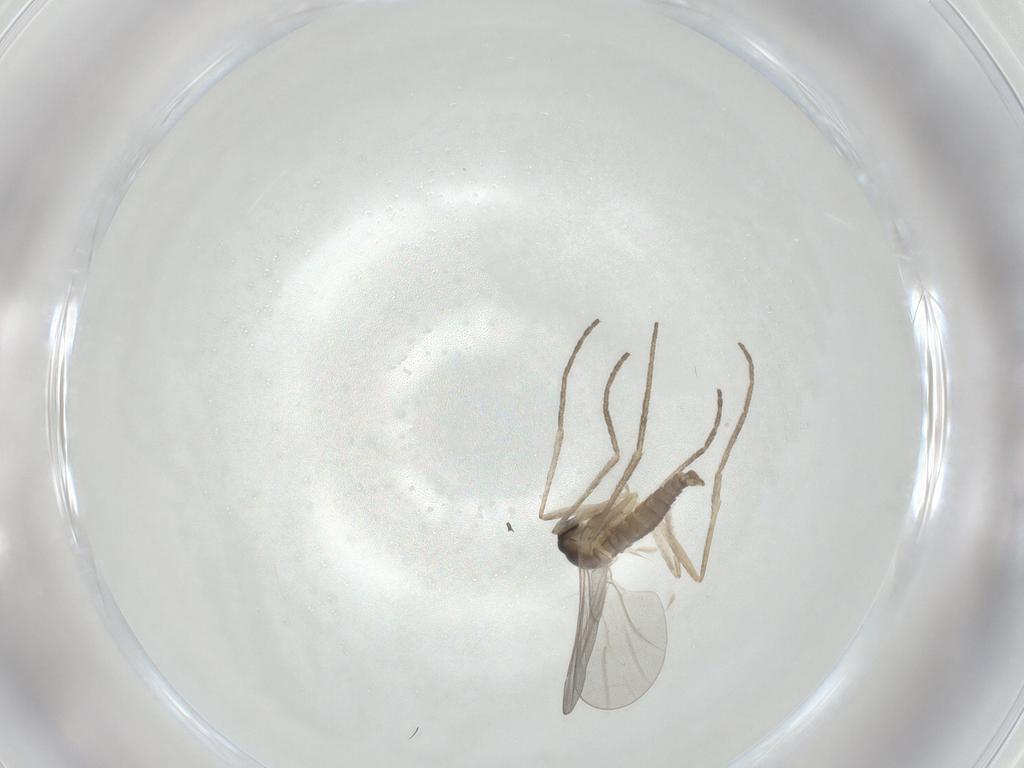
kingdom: Animalia
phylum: Arthropoda
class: Insecta
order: Diptera
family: Cecidomyiidae
